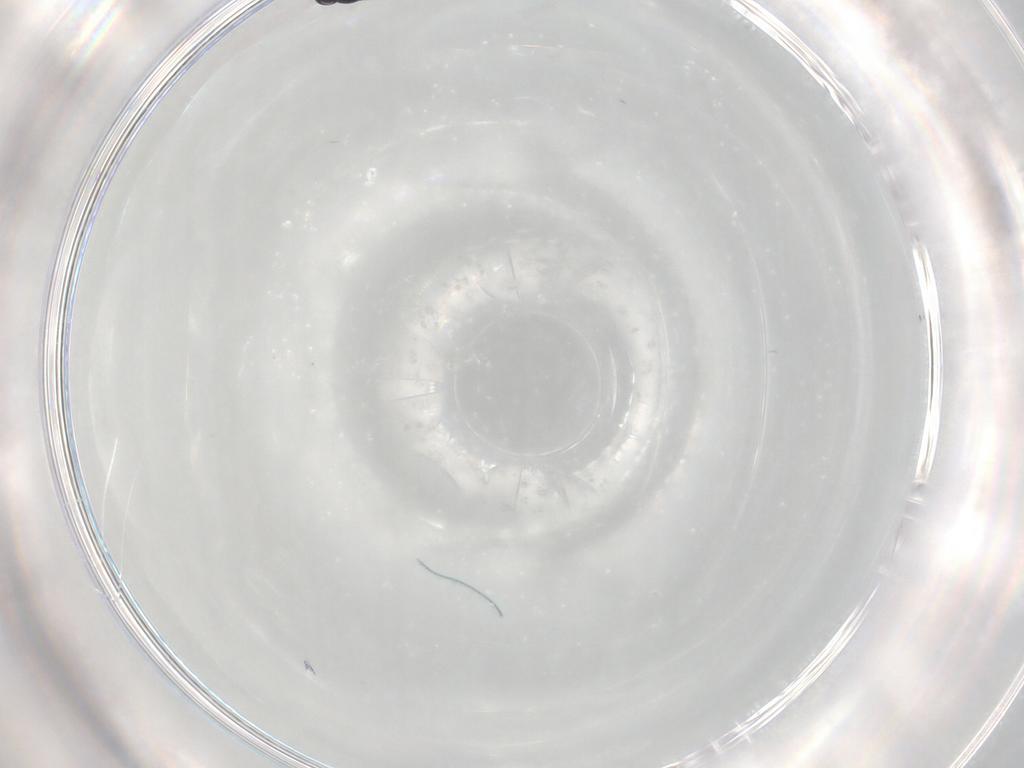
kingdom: Animalia
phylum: Arthropoda
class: Insecta
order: Hymenoptera
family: Scelionidae
